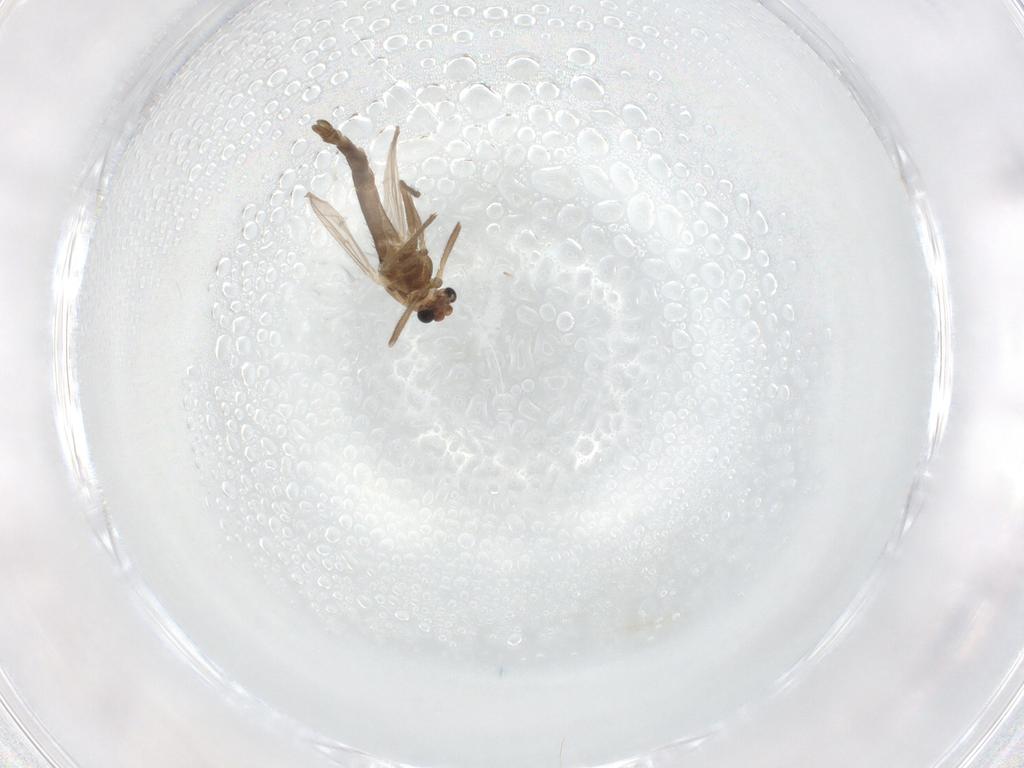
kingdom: Animalia
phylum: Arthropoda
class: Insecta
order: Diptera
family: Chironomidae
